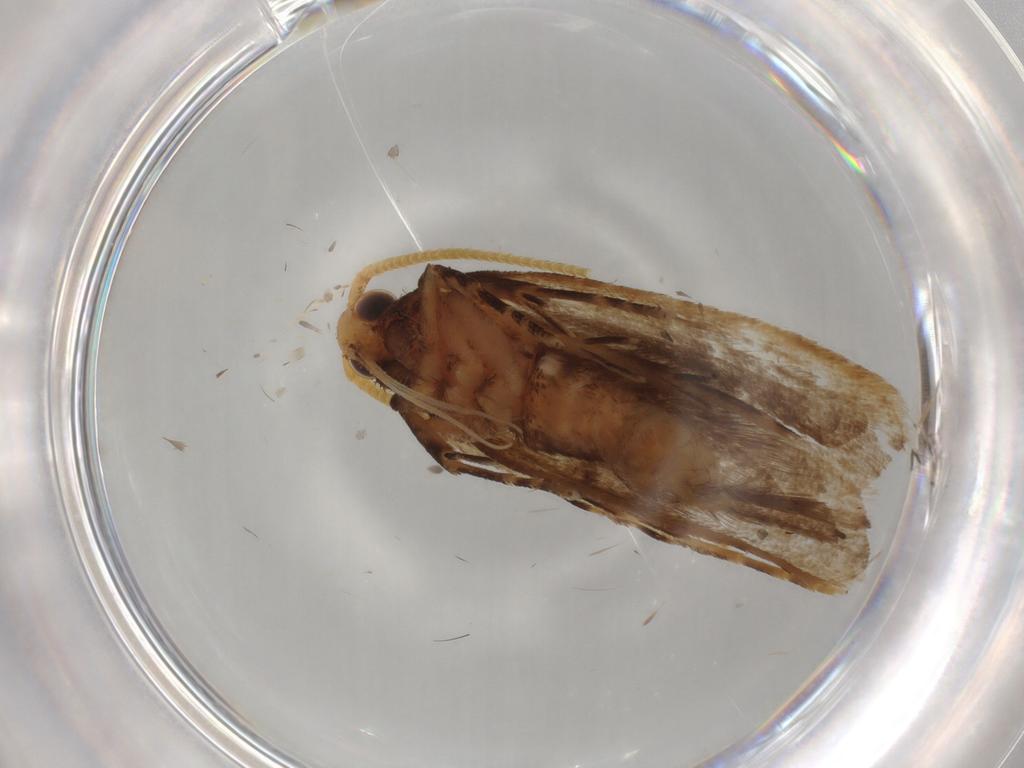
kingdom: Animalia
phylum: Arthropoda
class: Insecta
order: Lepidoptera
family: Lecithoceridae
